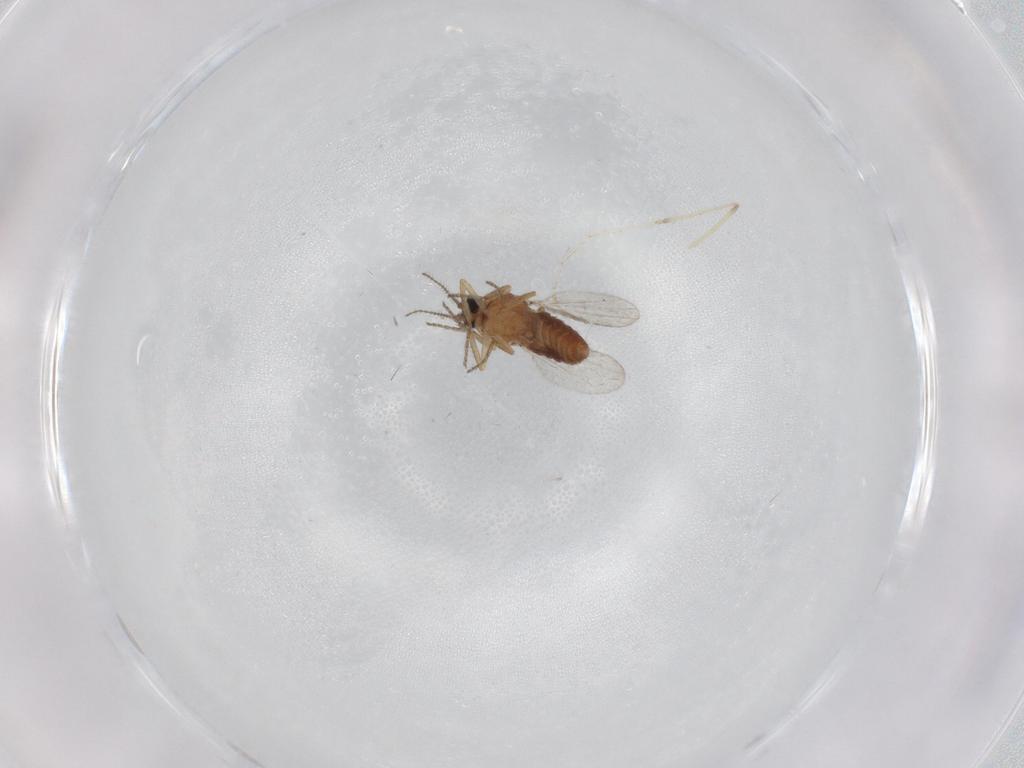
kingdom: Animalia
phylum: Arthropoda
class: Insecta
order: Diptera
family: Ceratopogonidae
